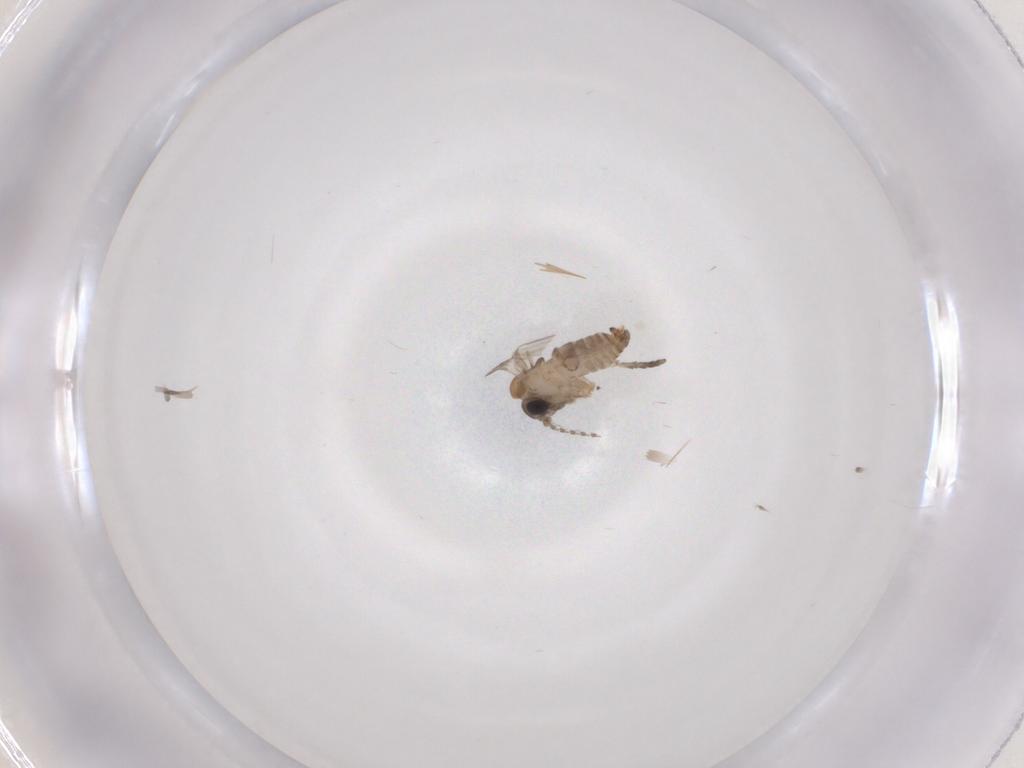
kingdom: Animalia
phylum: Arthropoda
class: Insecta
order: Diptera
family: Psychodidae
